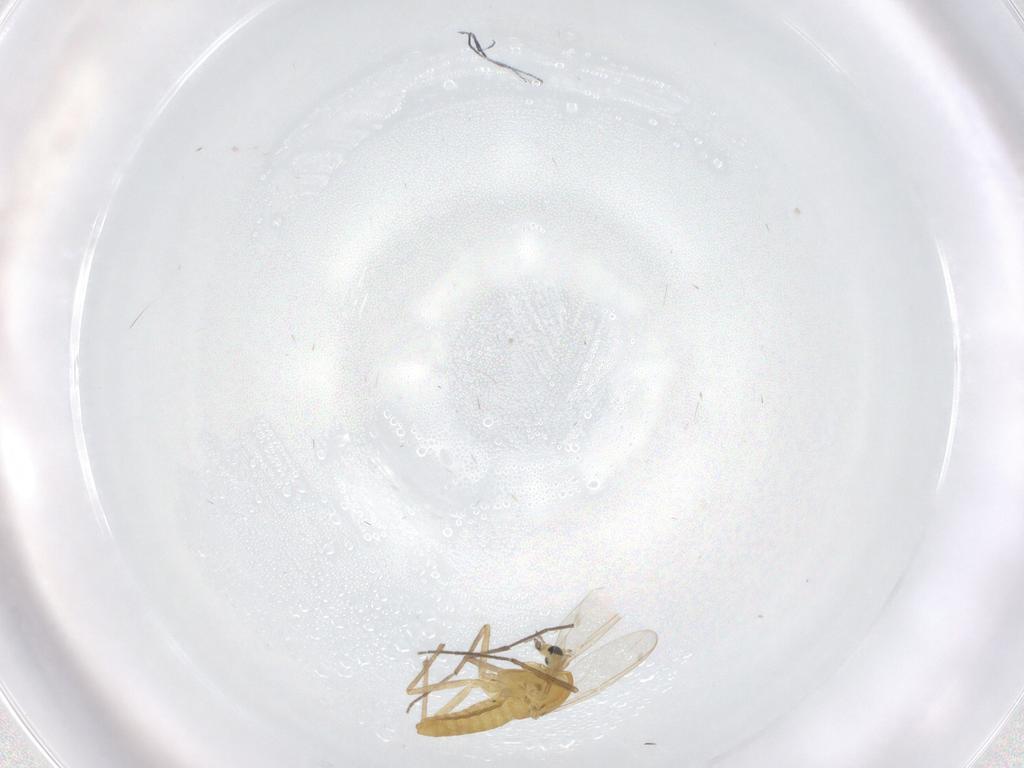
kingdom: Animalia
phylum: Arthropoda
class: Insecta
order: Diptera
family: Chironomidae
